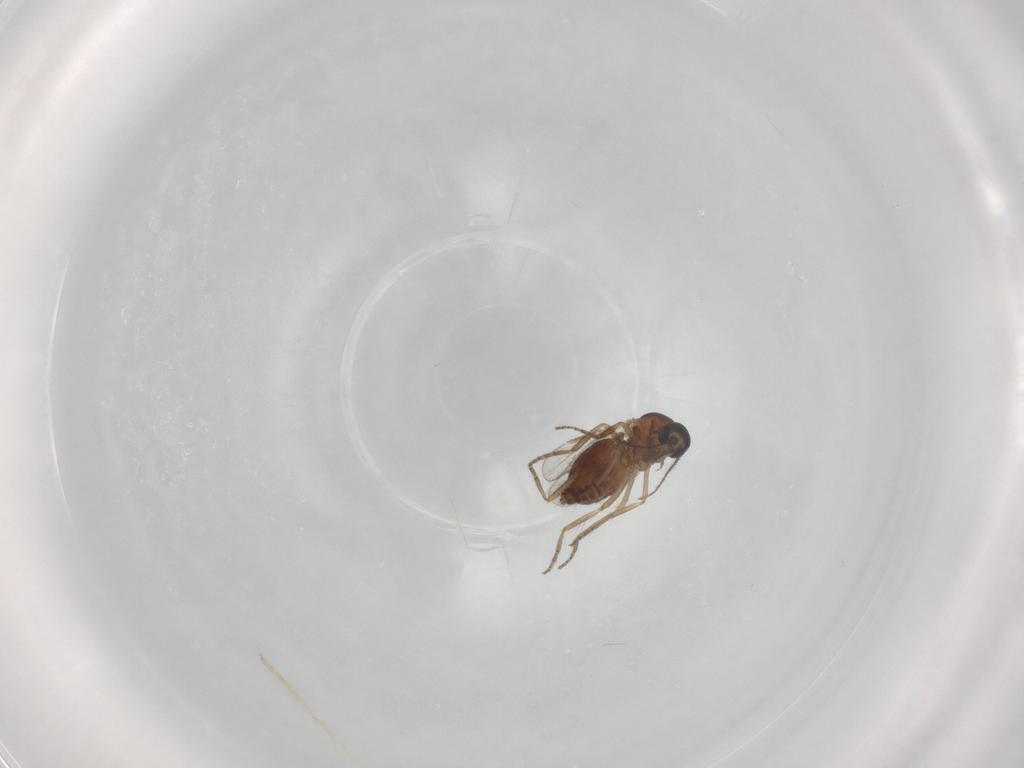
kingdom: Animalia
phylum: Arthropoda
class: Insecta
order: Diptera
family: Ceratopogonidae
